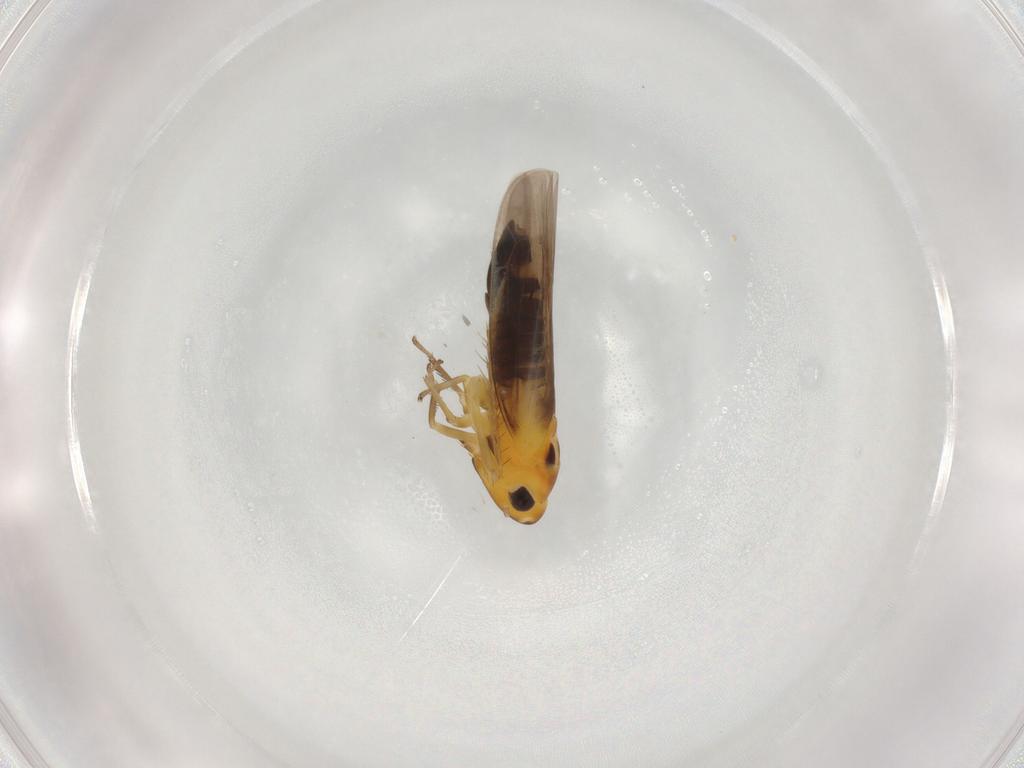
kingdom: Animalia
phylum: Arthropoda
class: Insecta
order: Hemiptera
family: Cicadellidae
